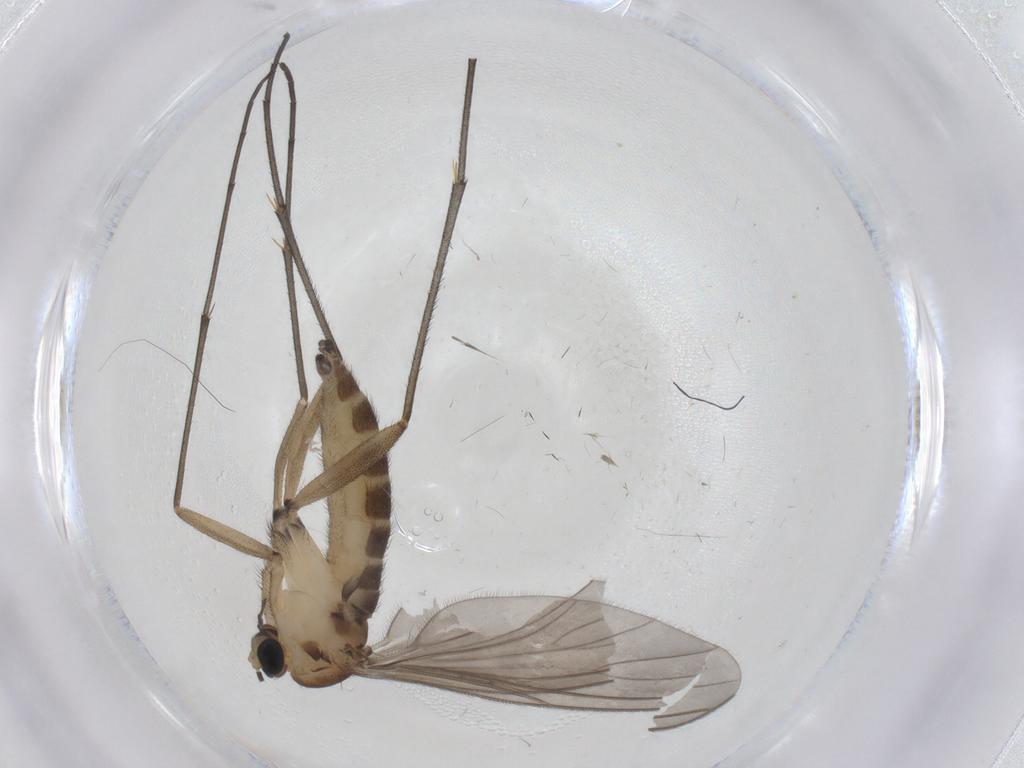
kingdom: Animalia
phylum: Arthropoda
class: Insecta
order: Diptera
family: Sciaridae
